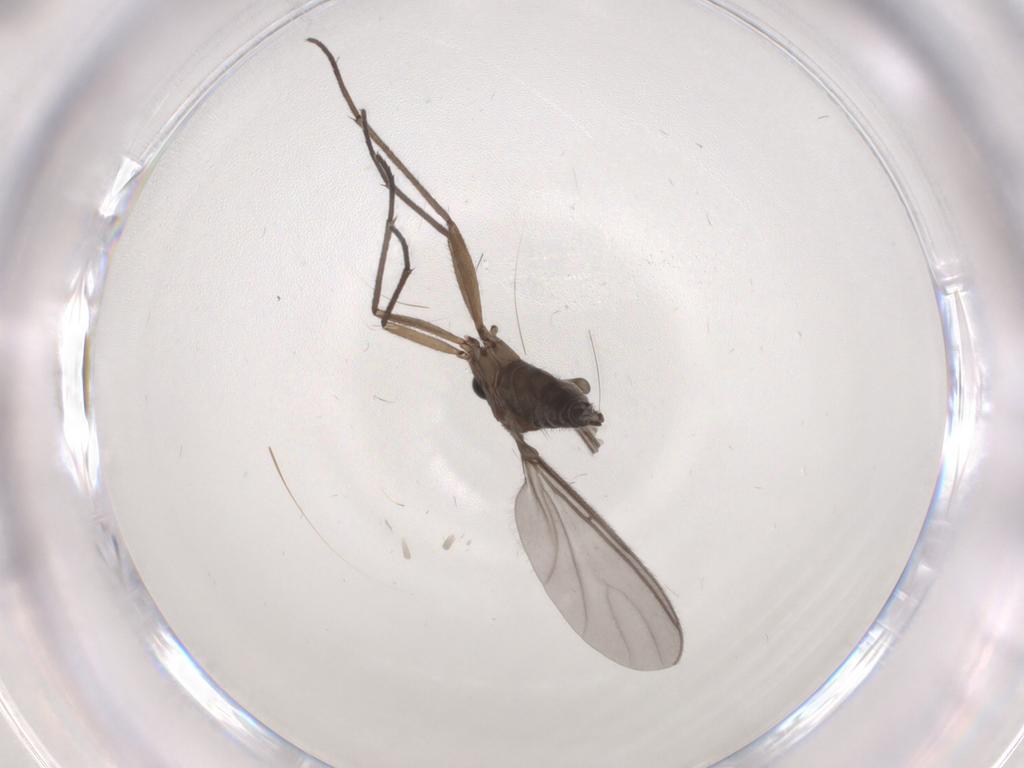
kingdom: Animalia
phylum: Arthropoda
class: Insecta
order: Diptera
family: Sciaridae
